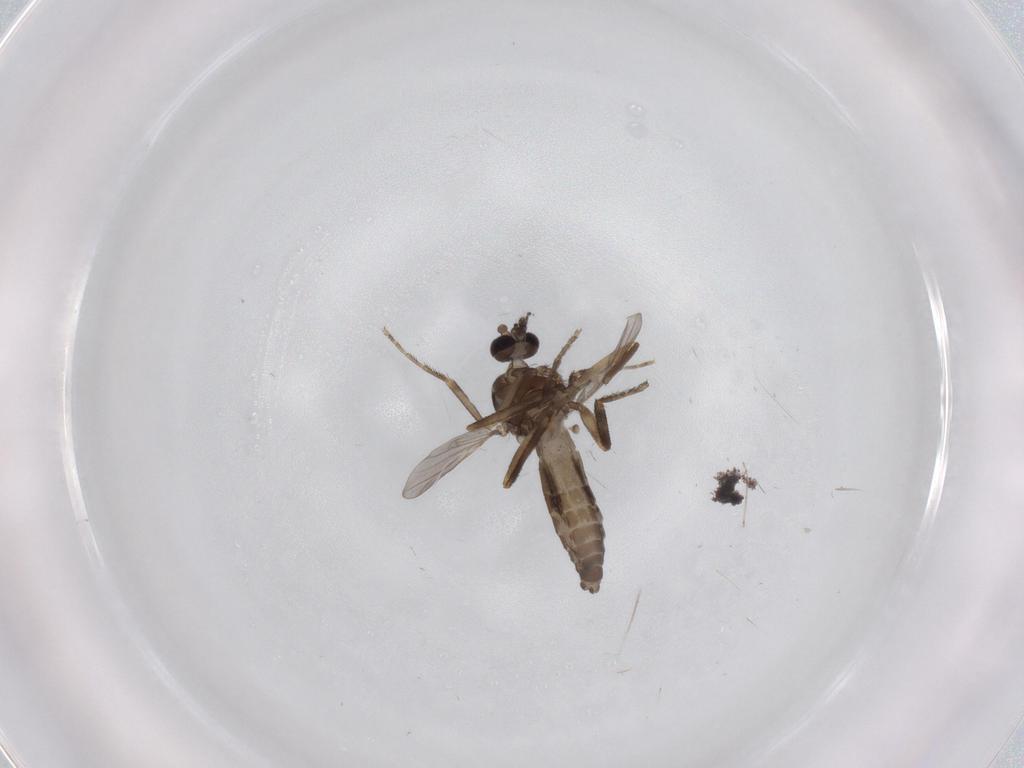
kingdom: Animalia
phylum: Arthropoda
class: Insecta
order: Diptera
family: Ceratopogonidae
